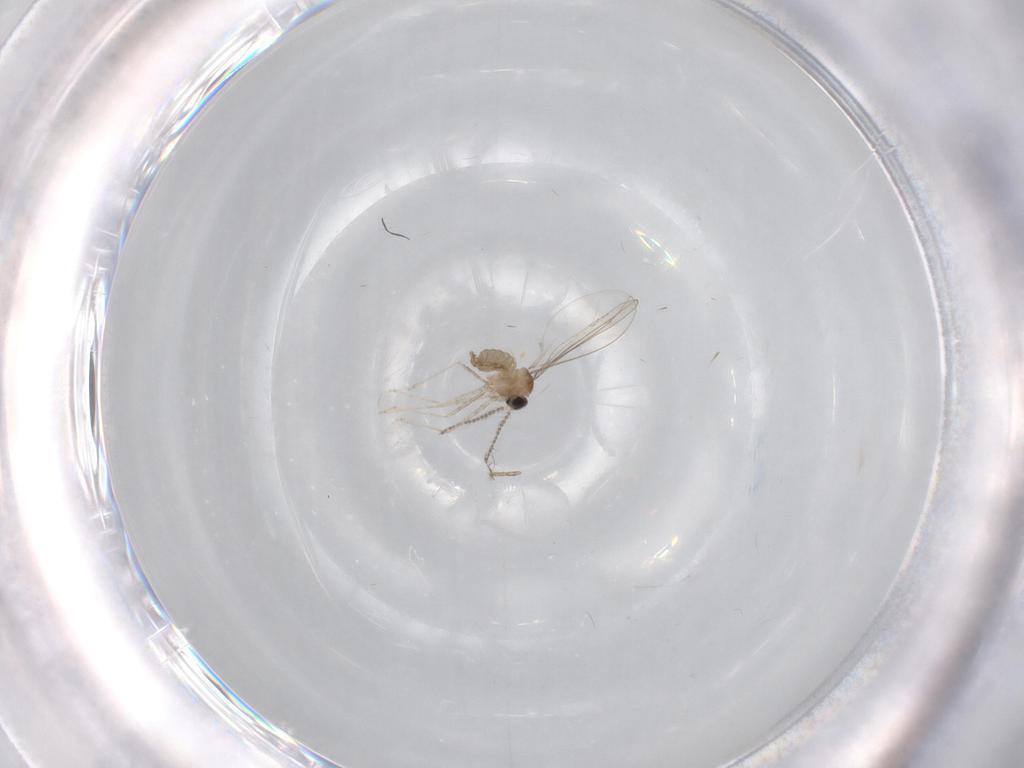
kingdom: Animalia
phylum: Arthropoda
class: Insecta
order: Diptera
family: Cecidomyiidae
